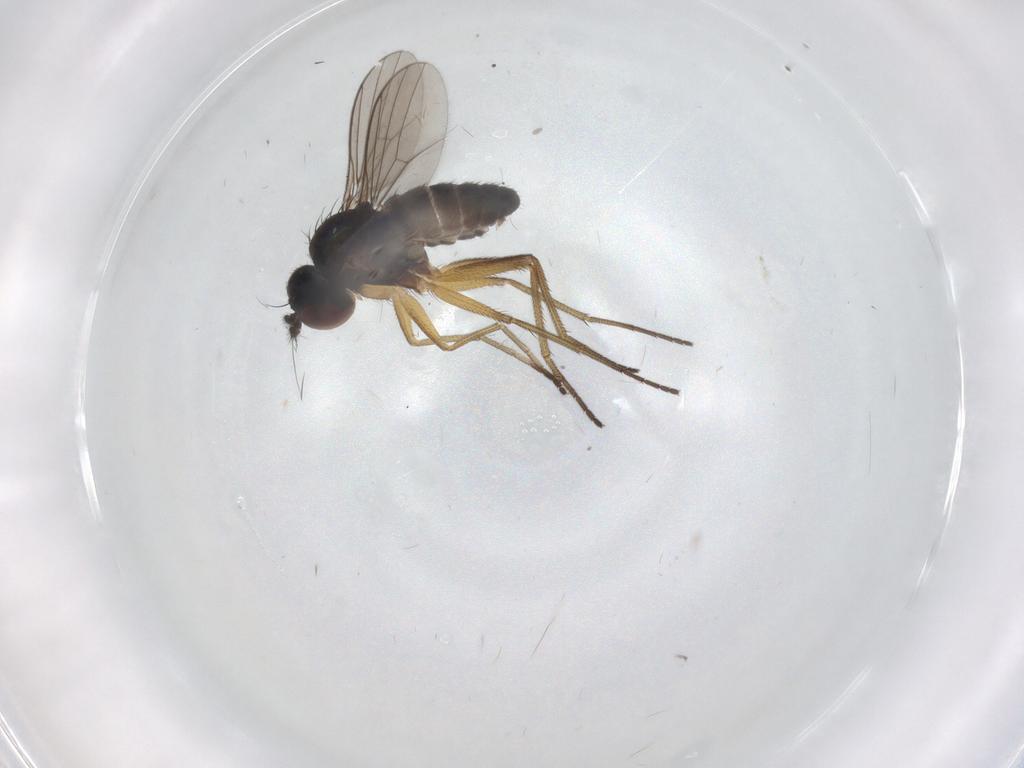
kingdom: Animalia
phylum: Arthropoda
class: Insecta
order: Diptera
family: Dolichopodidae
